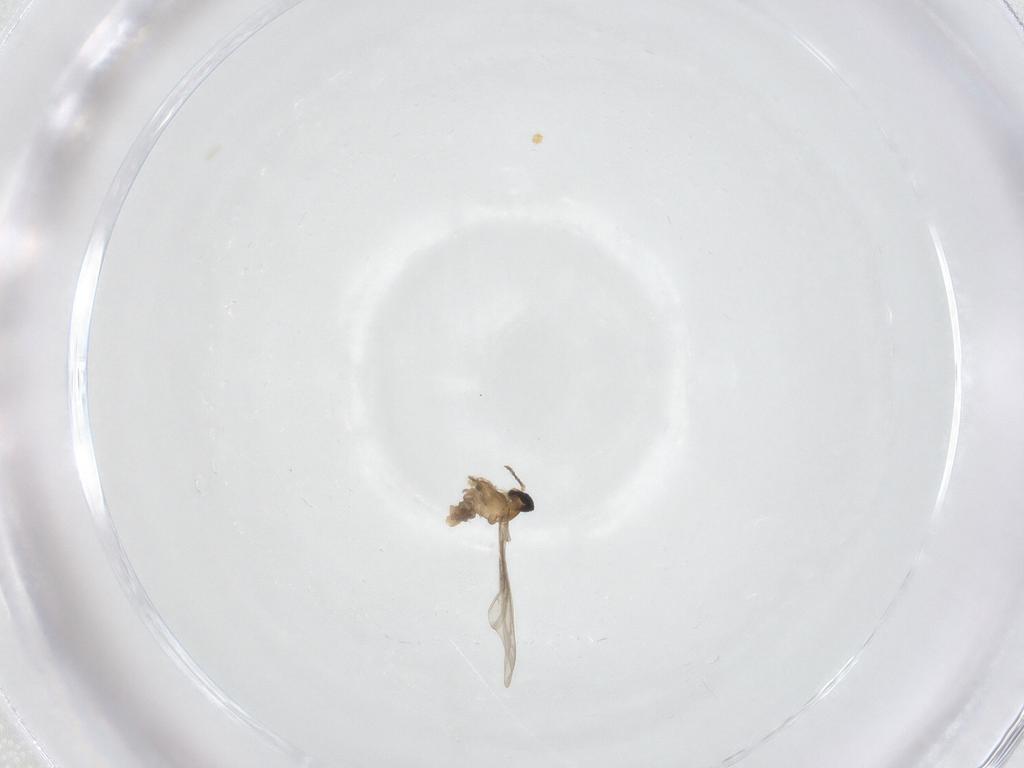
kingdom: Animalia
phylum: Arthropoda
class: Insecta
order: Diptera
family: Cecidomyiidae
